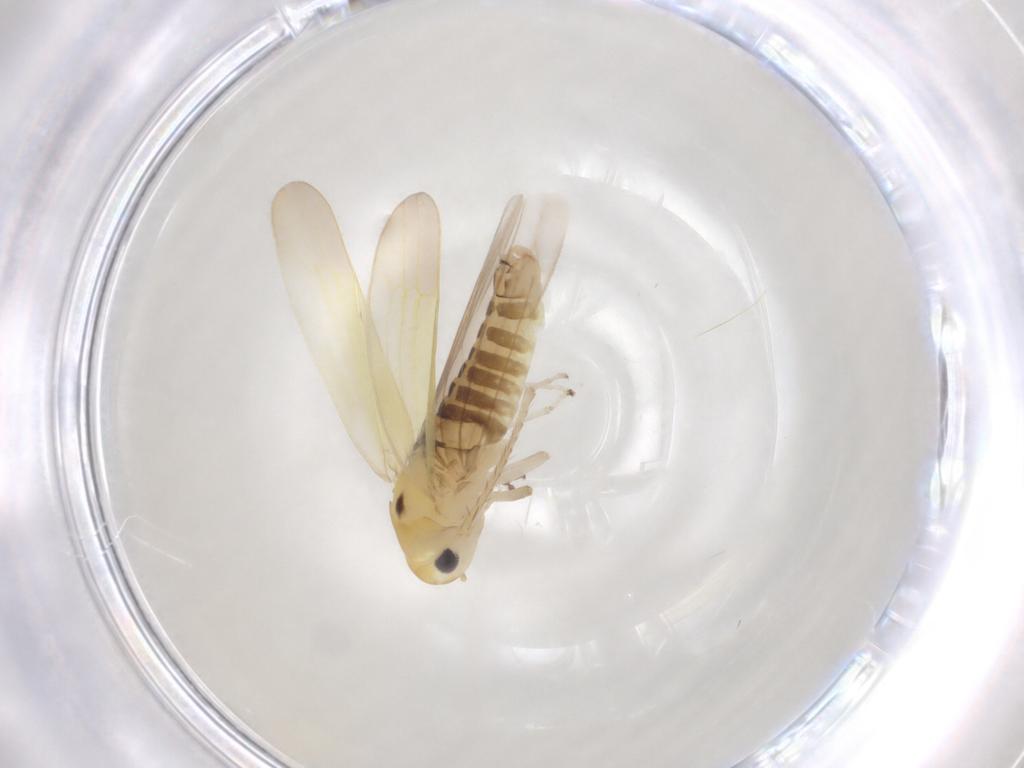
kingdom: Animalia
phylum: Arthropoda
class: Insecta
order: Hemiptera
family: Cicadellidae
